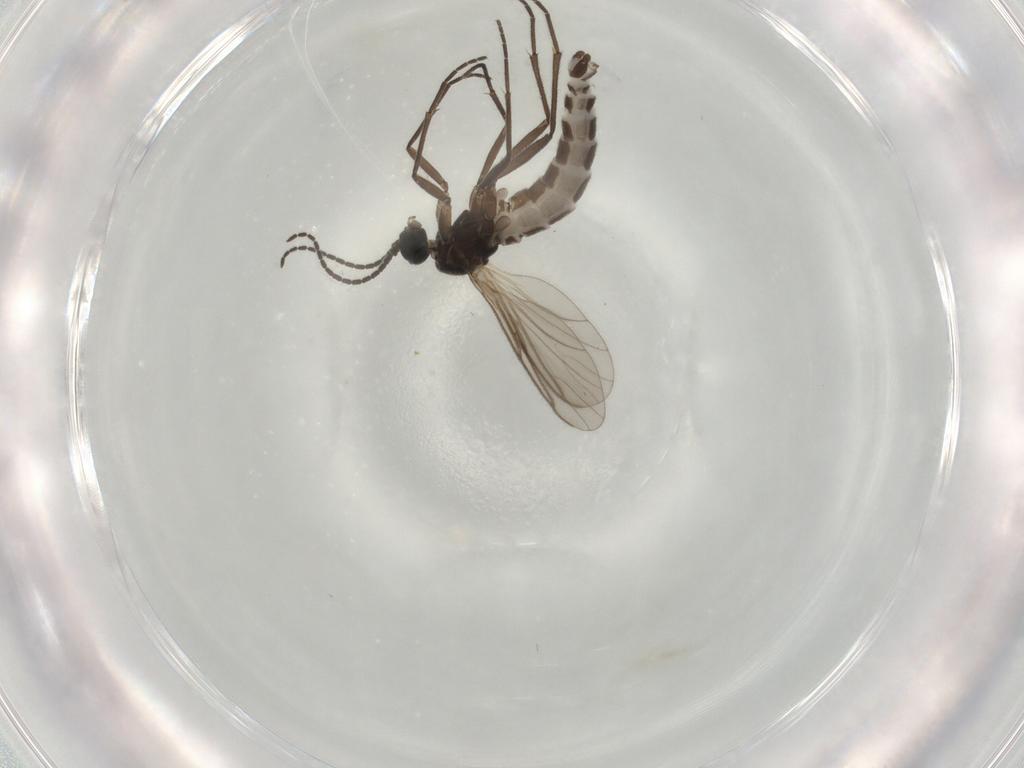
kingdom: Animalia
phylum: Arthropoda
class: Insecta
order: Diptera
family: Chironomidae
